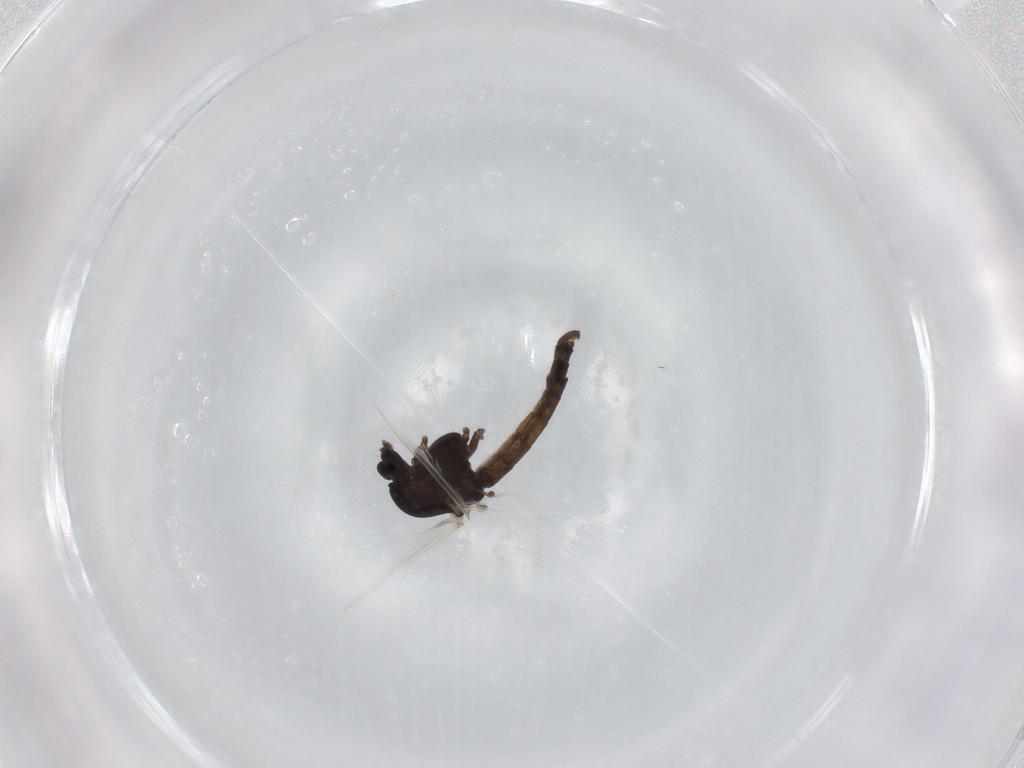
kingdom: Animalia
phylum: Arthropoda
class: Insecta
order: Diptera
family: Chironomidae
